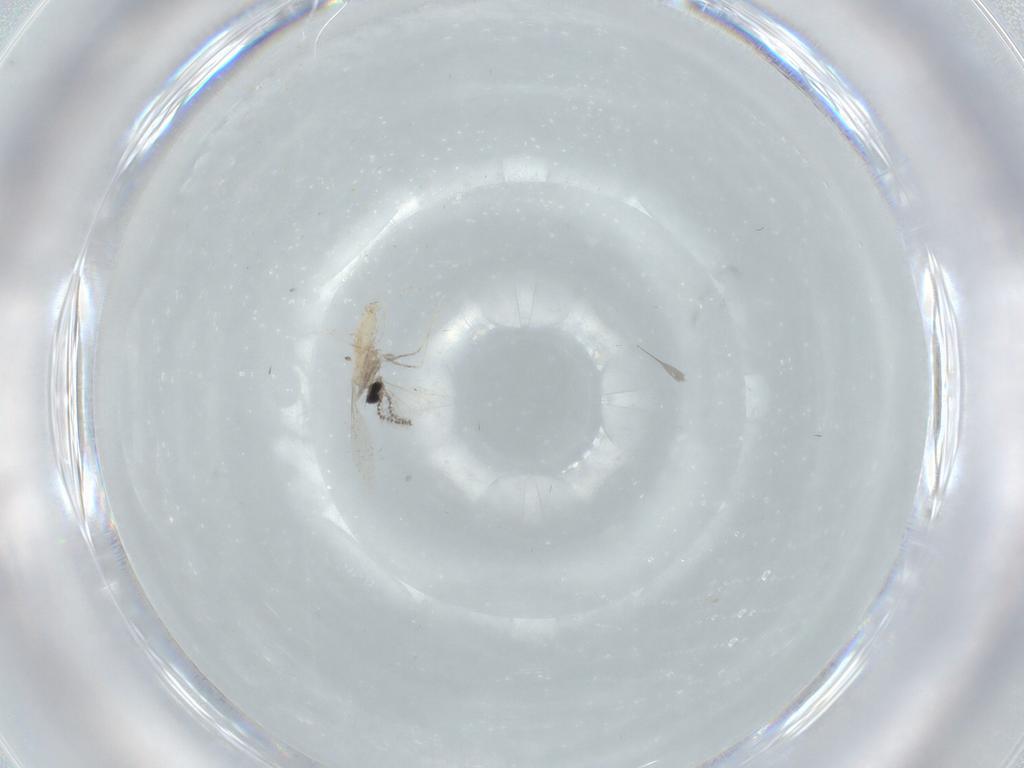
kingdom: Animalia
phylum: Arthropoda
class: Insecta
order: Diptera
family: Cecidomyiidae
